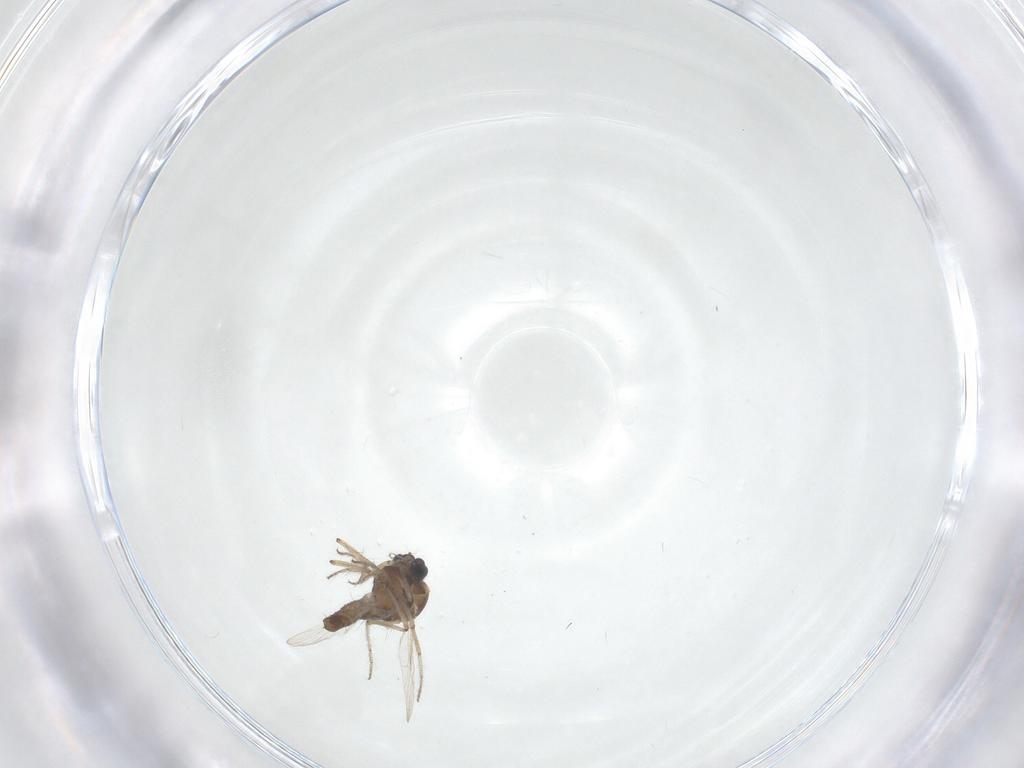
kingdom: Animalia
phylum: Arthropoda
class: Insecta
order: Diptera
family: Ceratopogonidae
